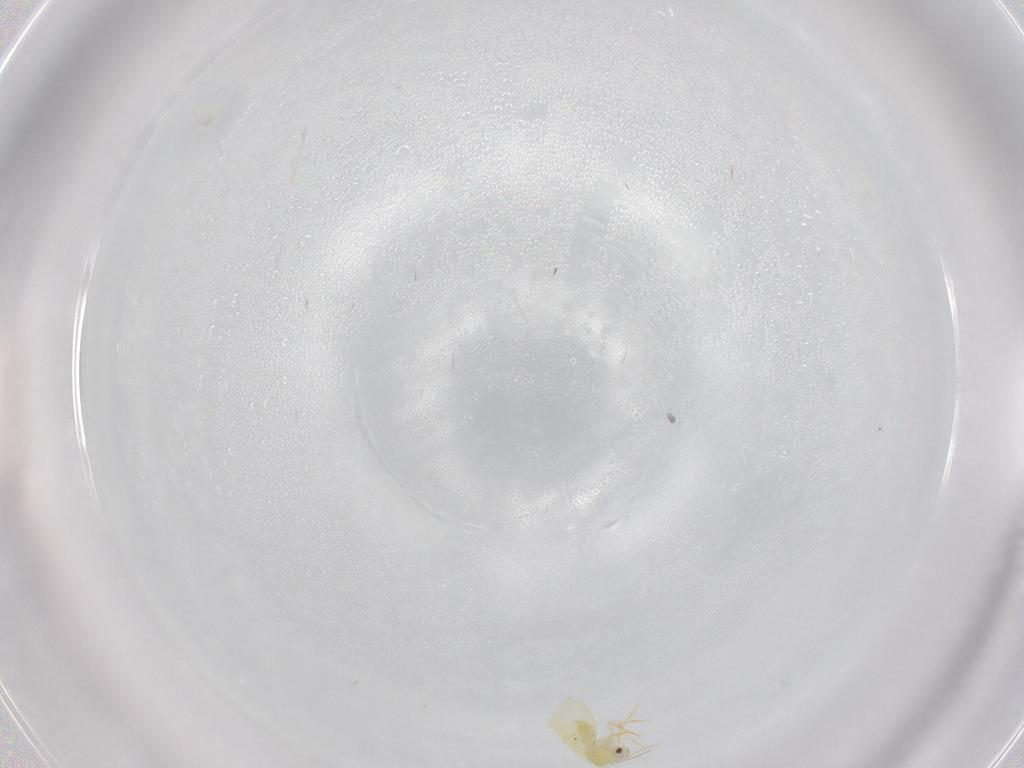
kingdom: Animalia
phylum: Arthropoda
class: Insecta
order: Hemiptera
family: Aleyrodidae
